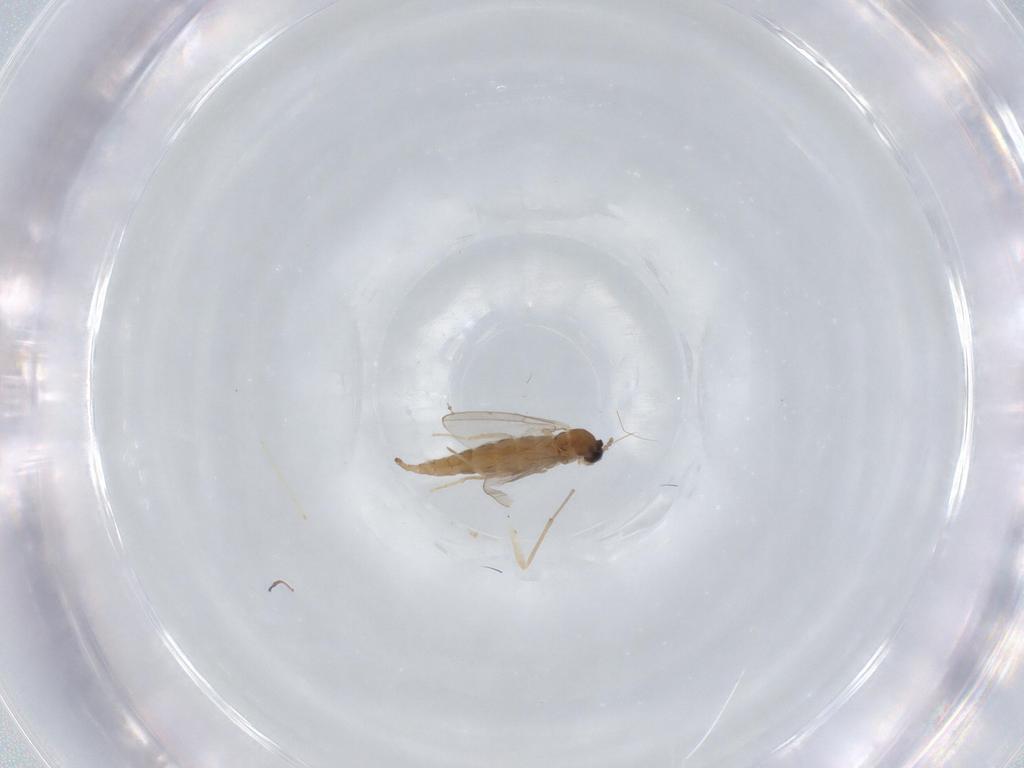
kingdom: Animalia
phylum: Arthropoda
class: Insecta
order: Diptera
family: Cecidomyiidae
